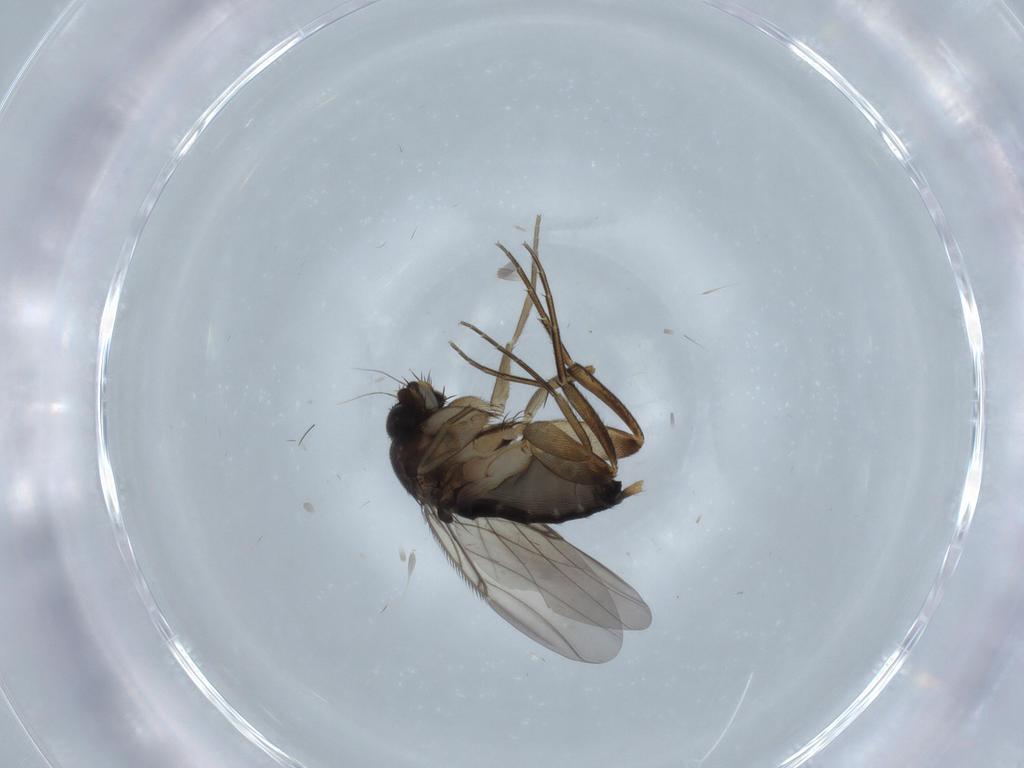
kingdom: Animalia
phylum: Arthropoda
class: Insecta
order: Diptera
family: Phoridae
